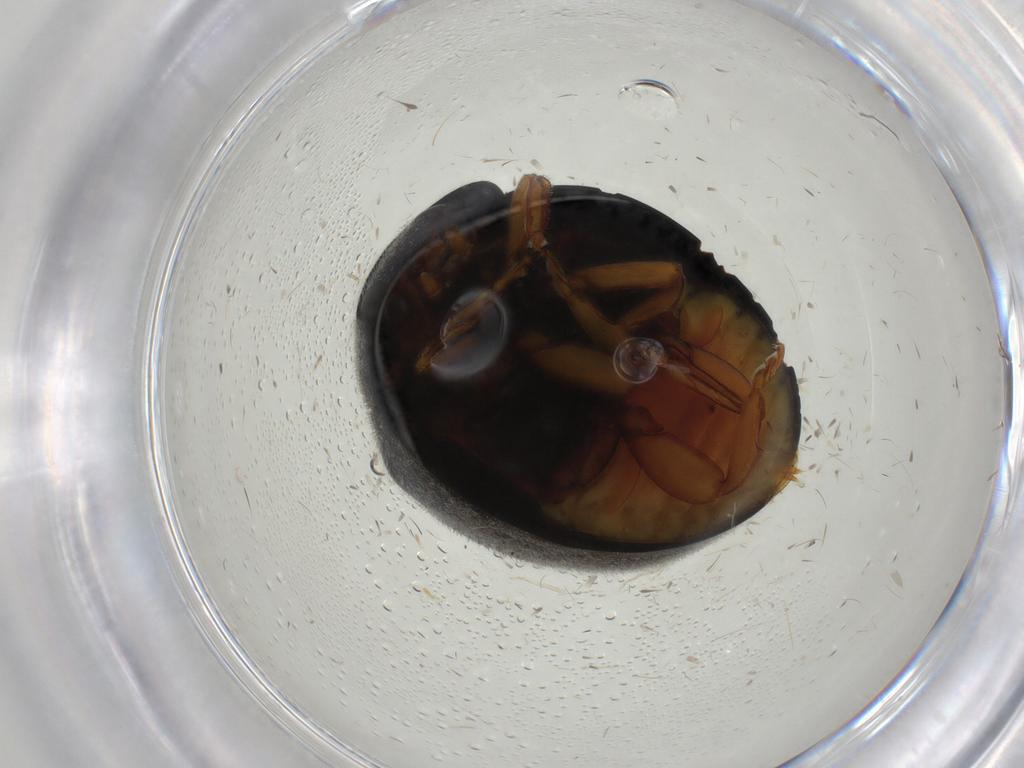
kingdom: Animalia
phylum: Arthropoda
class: Insecta
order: Coleoptera
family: Coccinellidae
